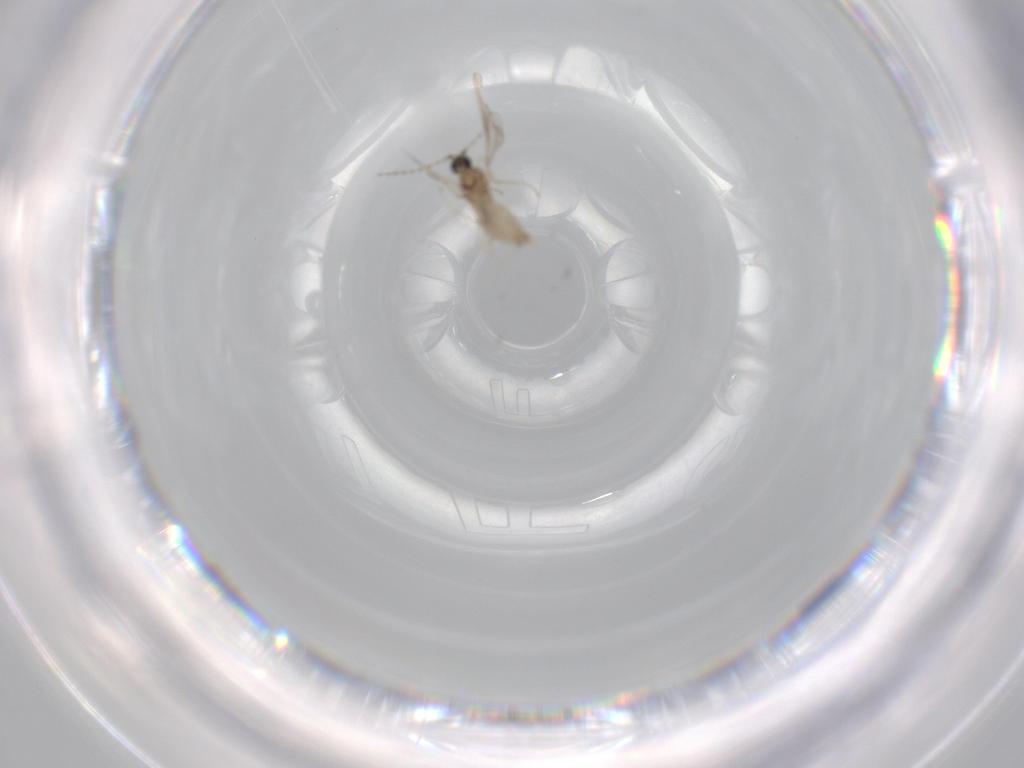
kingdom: Animalia
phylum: Arthropoda
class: Insecta
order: Diptera
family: Cecidomyiidae
